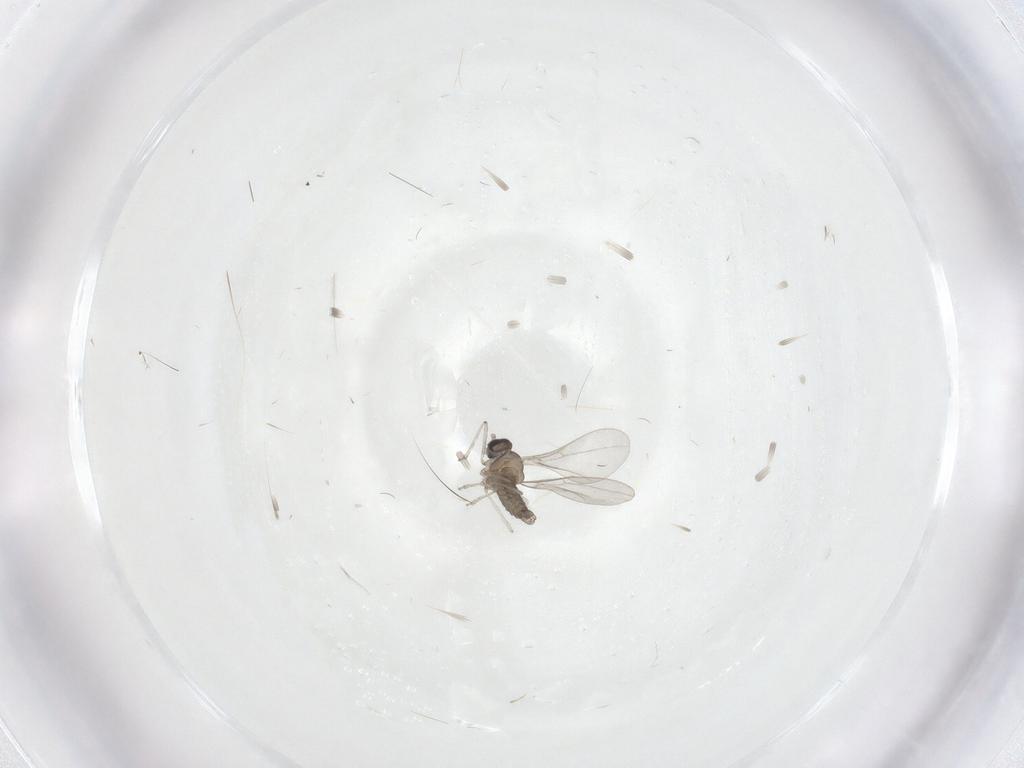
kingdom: Animalia
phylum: Arthropoda
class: Insecta
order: Diptera
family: Cecidomyiidae
